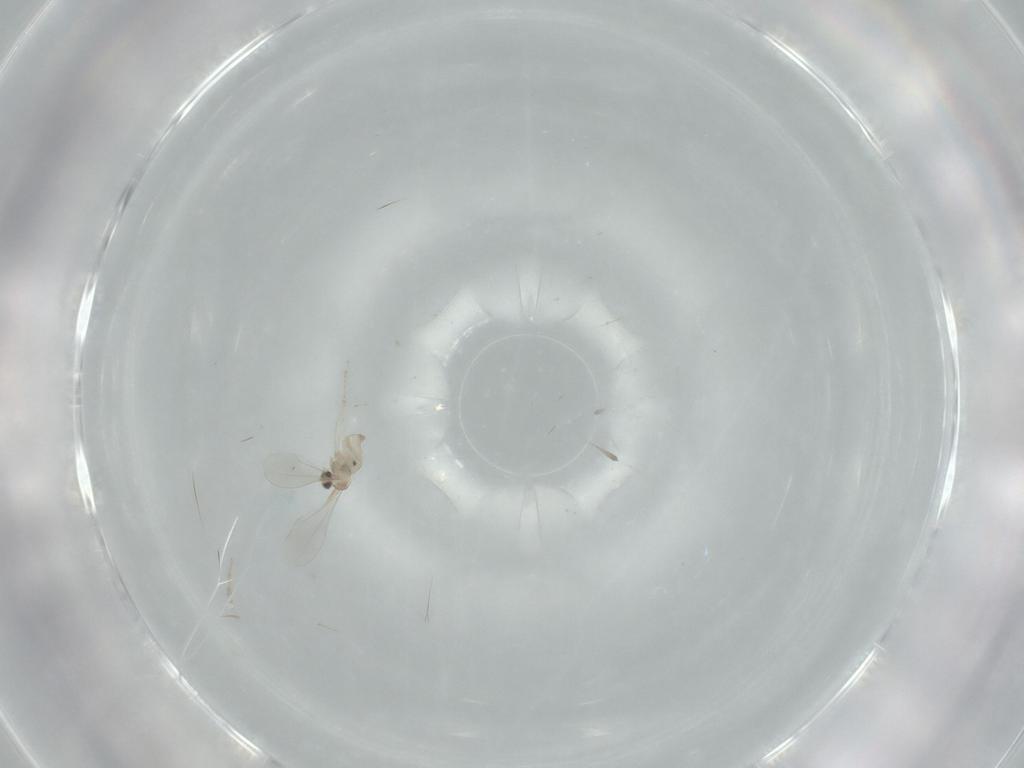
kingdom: Animalia
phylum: Arthropoda
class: Insecta
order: Diptera
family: Cecidomyiidae
